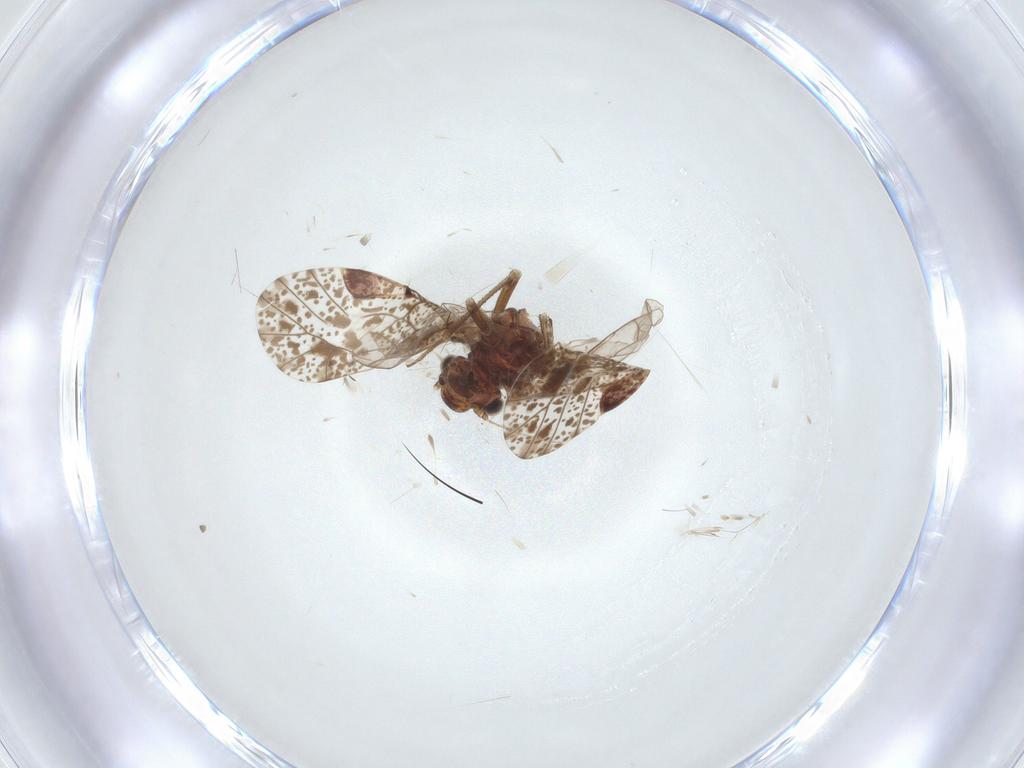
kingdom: Animalia
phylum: Arthropoda
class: Insecta
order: Psocodea
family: Psocidae
